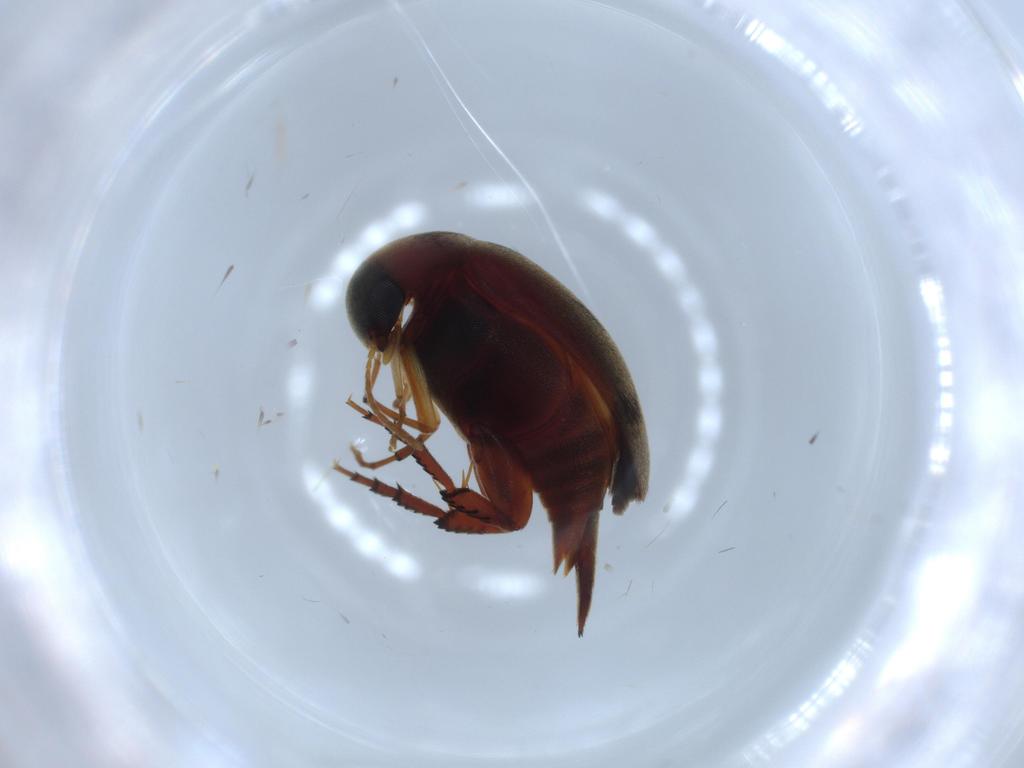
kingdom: Animalia
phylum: Arthropoda
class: Insecta
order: Coleoptera
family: Mordellidae
